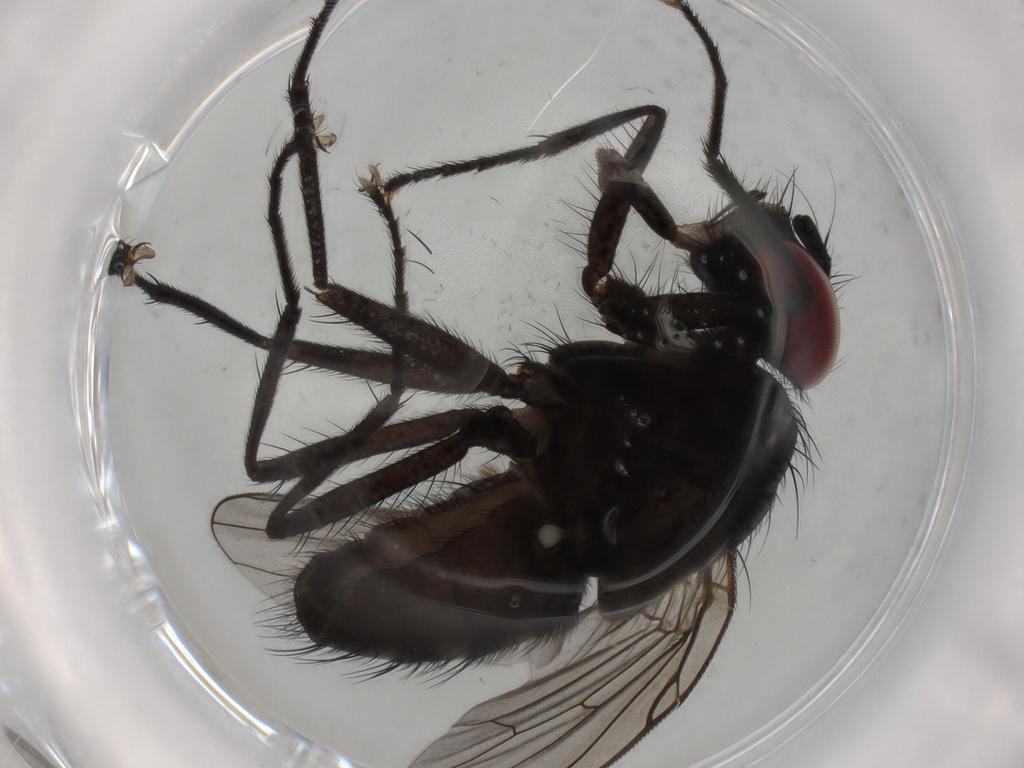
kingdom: Animalia
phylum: Arthropoda
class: Insecta
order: Diptera
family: Muscidae
